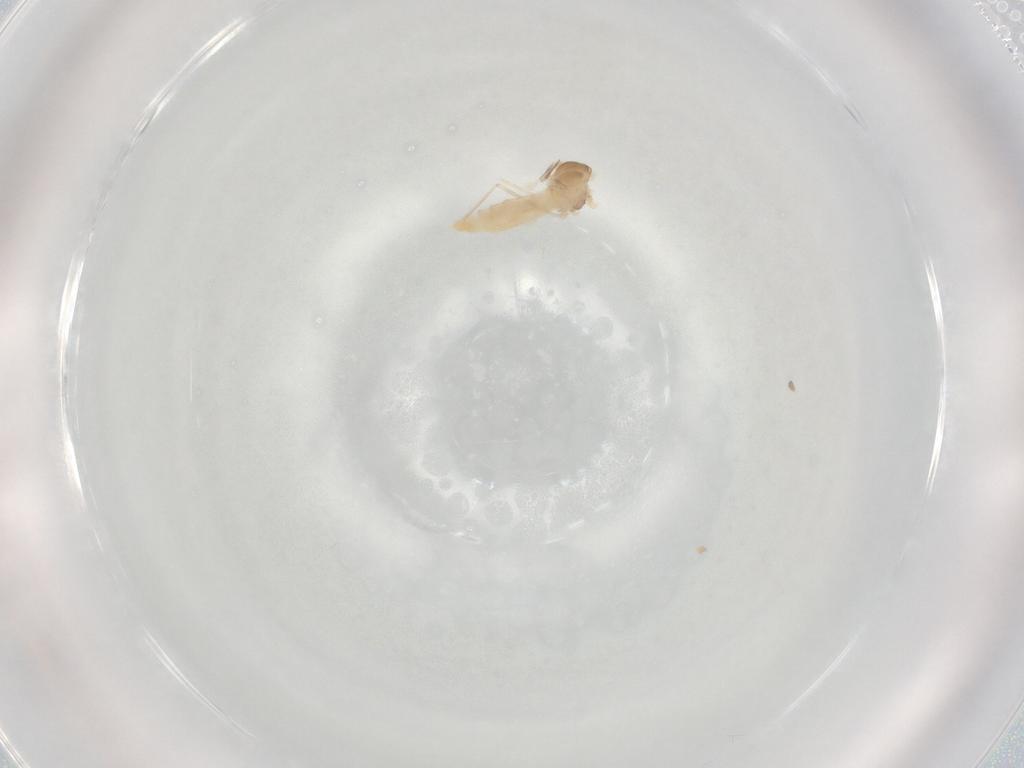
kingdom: Animalia
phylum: Arthropoda
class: Insecta
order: Diptera
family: Cecidomyiidae
